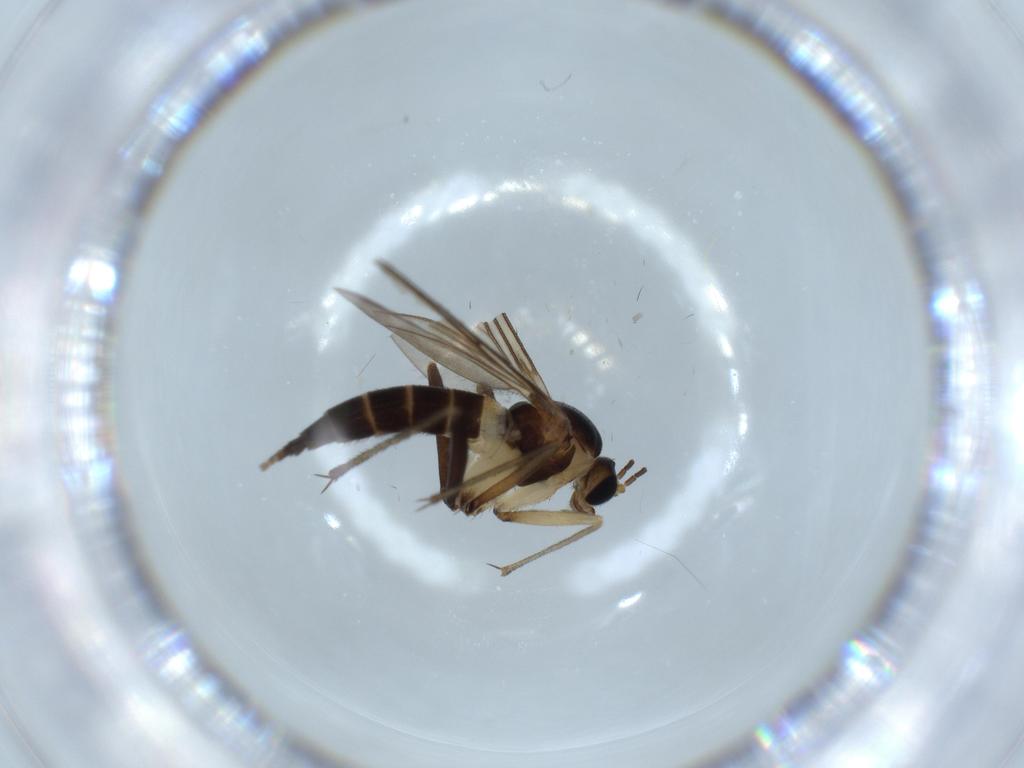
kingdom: Animalia
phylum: Arthropoda
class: Insecta
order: Diptera
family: Sciaridae
